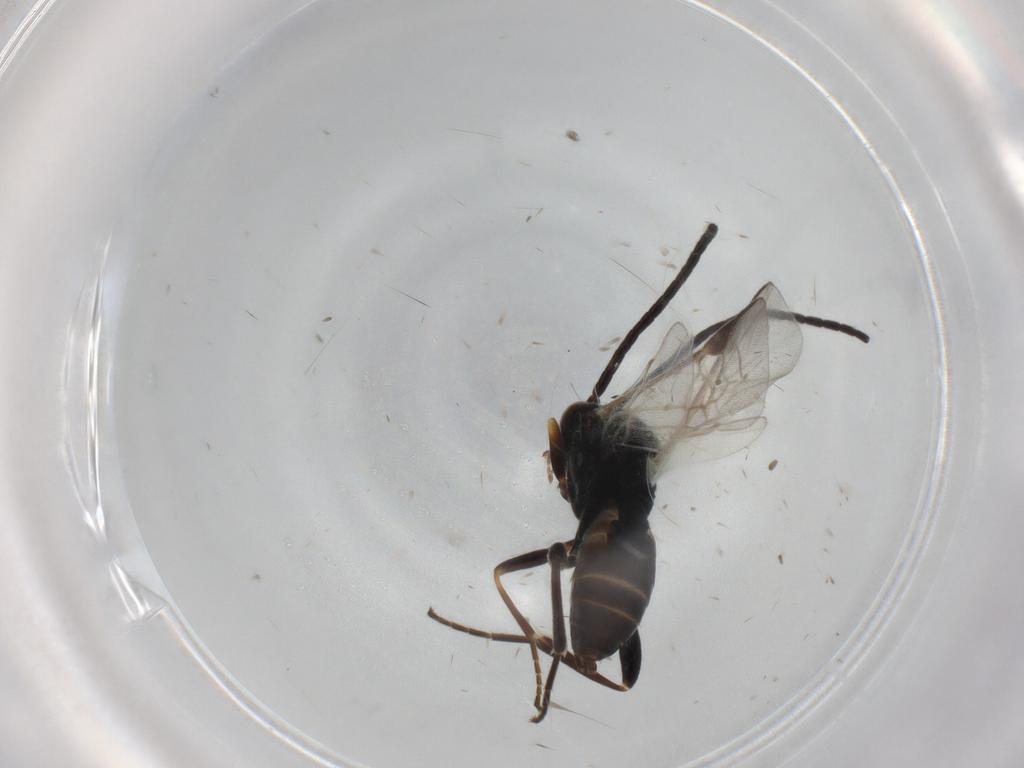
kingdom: Animalia
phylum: Arthropoda
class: Insecta
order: Hymenoptera
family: Braconidae
